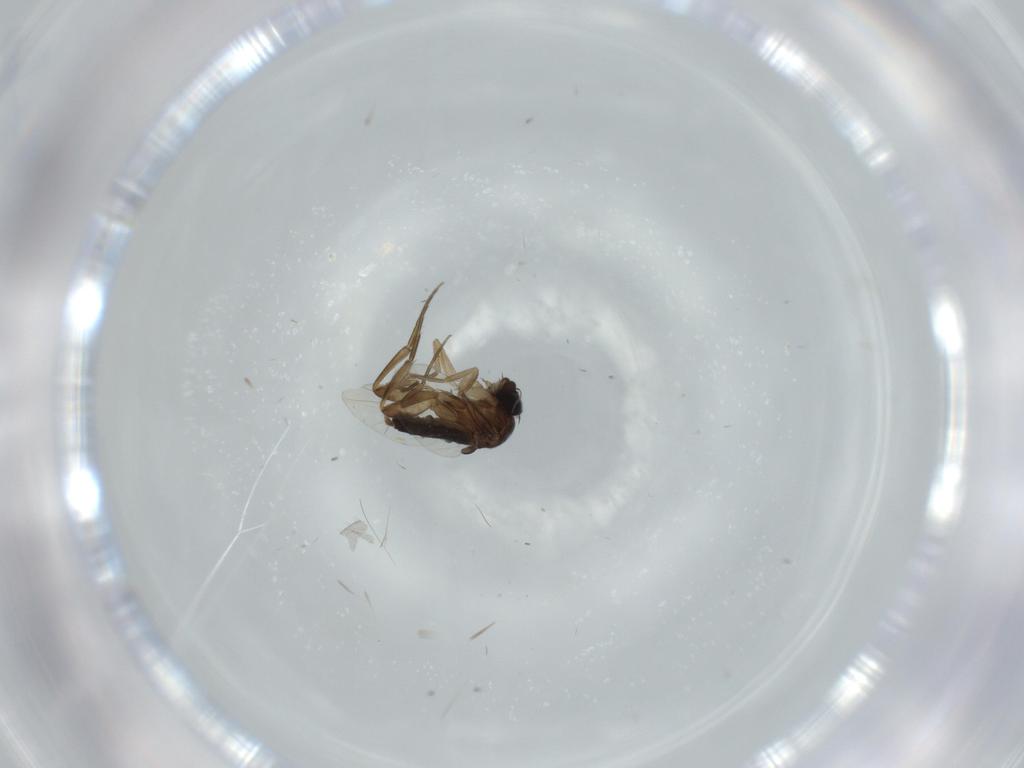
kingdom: Animalia
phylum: Arthropoda
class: Insecta
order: Diptera
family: Phoridae
